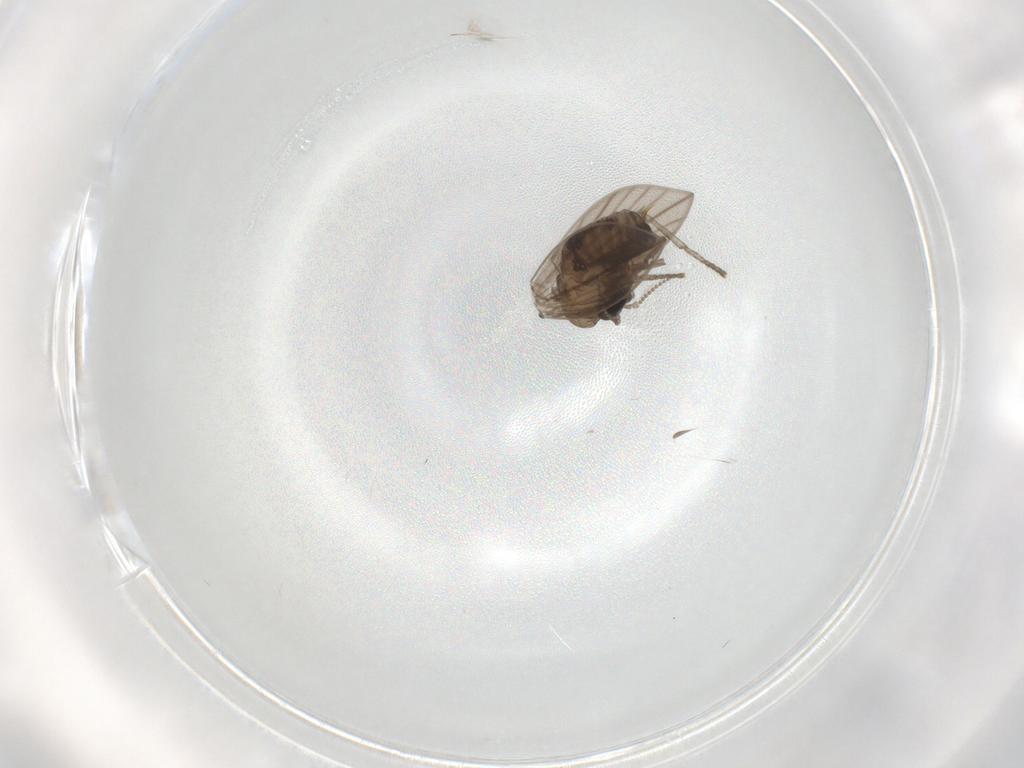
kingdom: Animalia
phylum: Arthropoda
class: Insecta
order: Diptera
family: Psychodidae
